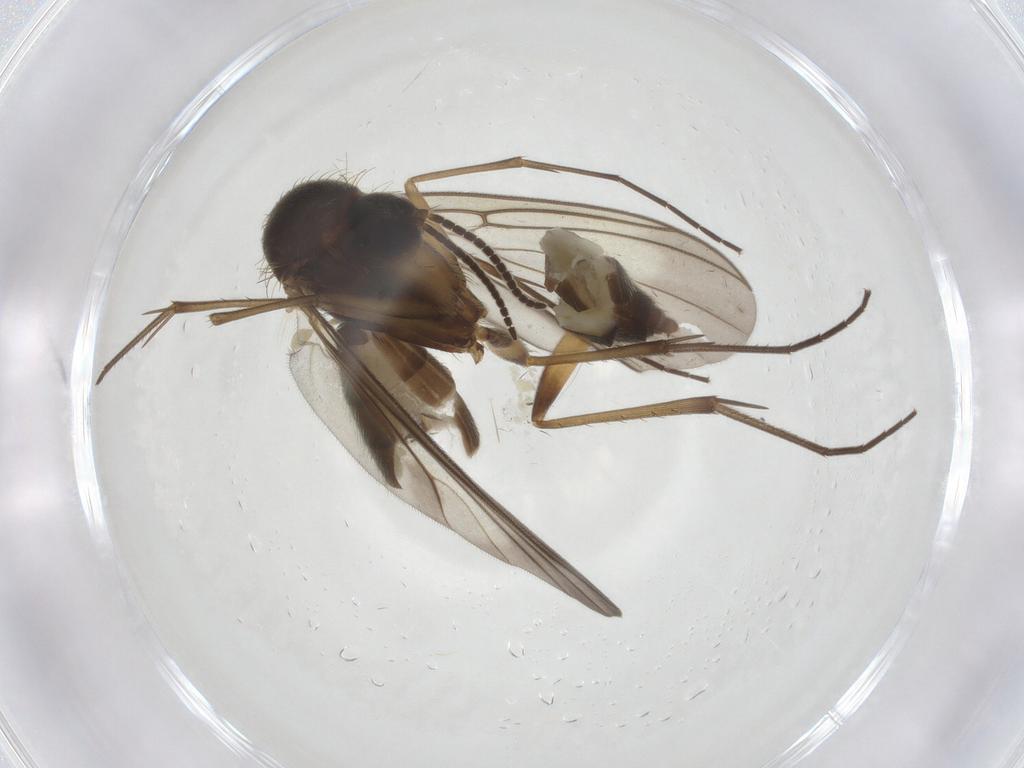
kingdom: Animalia
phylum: Arthropoda
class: Insecta
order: Diptera
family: Mycetophilidae
